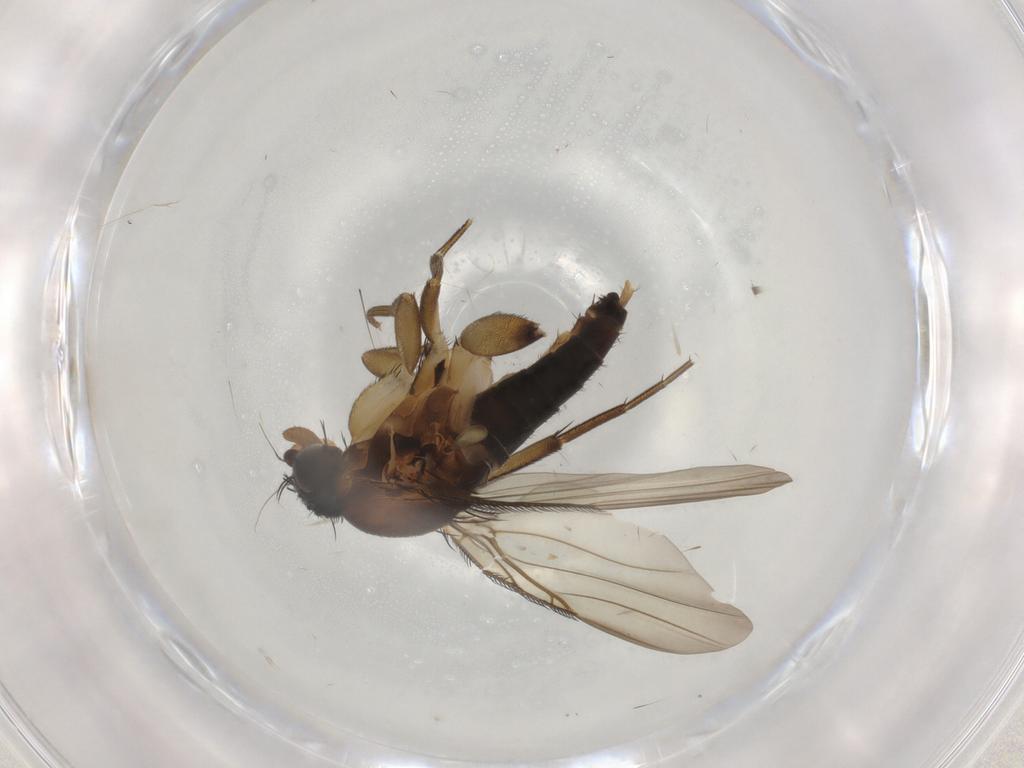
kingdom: Animalia
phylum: Arthropoda
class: Insecta
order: Diptera
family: Phoridae
